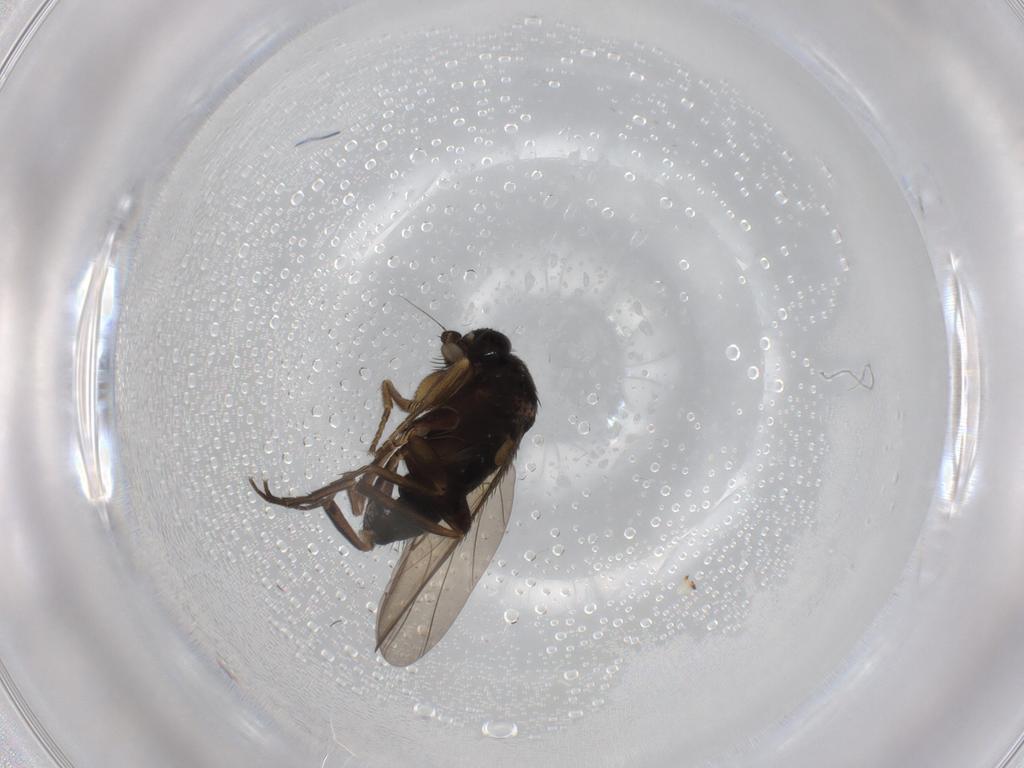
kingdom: Animalia
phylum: Arthropoda
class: Insecta
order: Diptera
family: Phoridae
